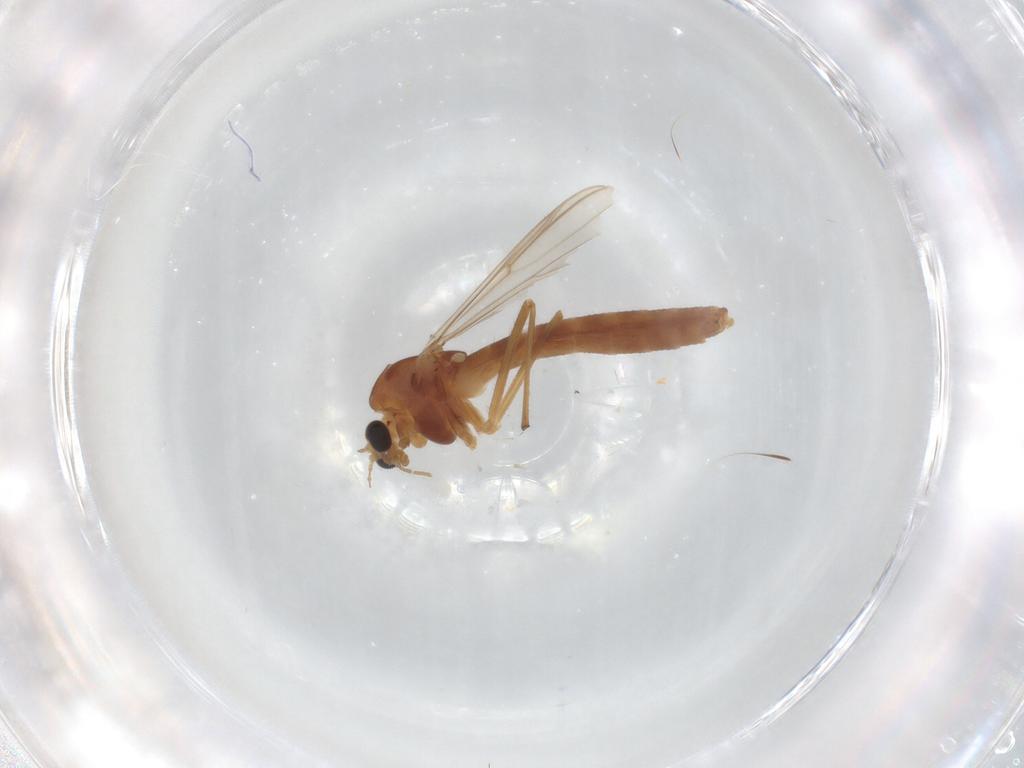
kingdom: Animalia
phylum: Arthropoda
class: Insecta
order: Diptera
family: Chironomidae
